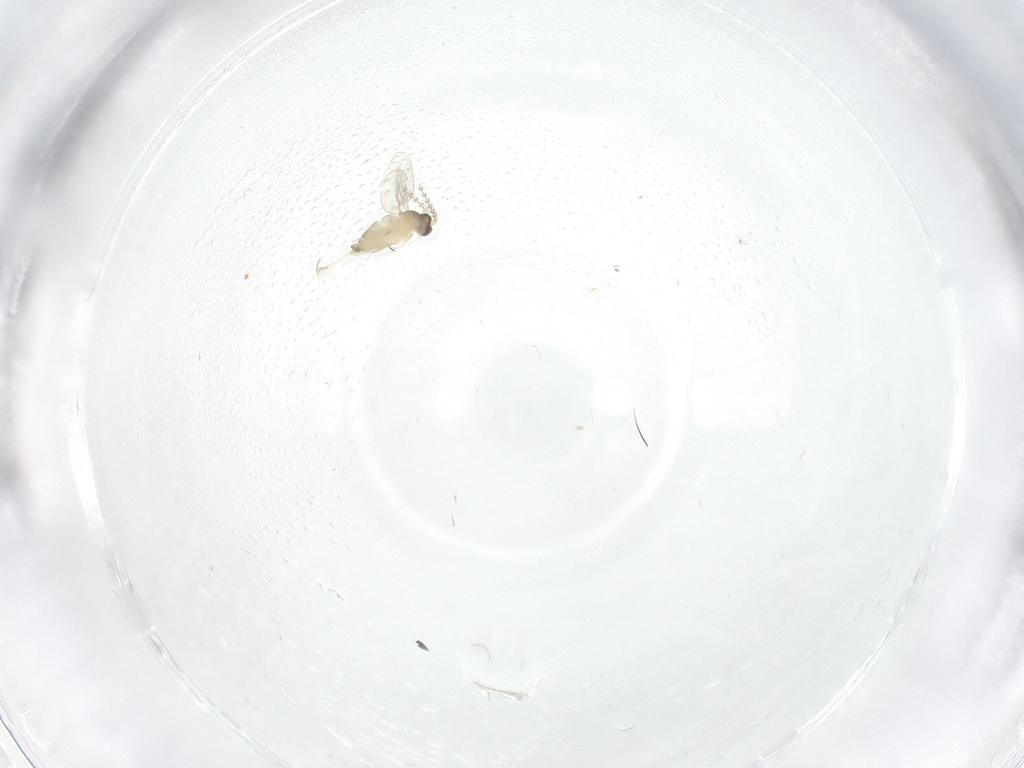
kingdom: Animalia
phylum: Arthropoda
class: Insecta
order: Diptera
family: Cecidomyiidae
